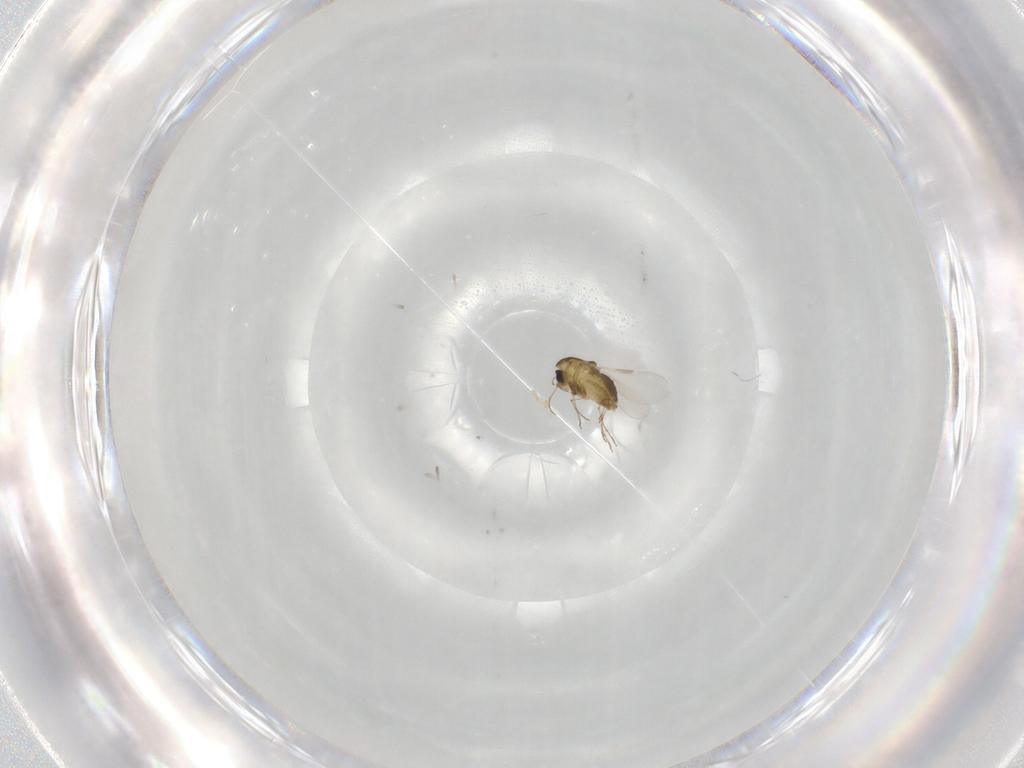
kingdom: Animalia
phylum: Arthropoda
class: Insecta
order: Diptera
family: Chironomidae
